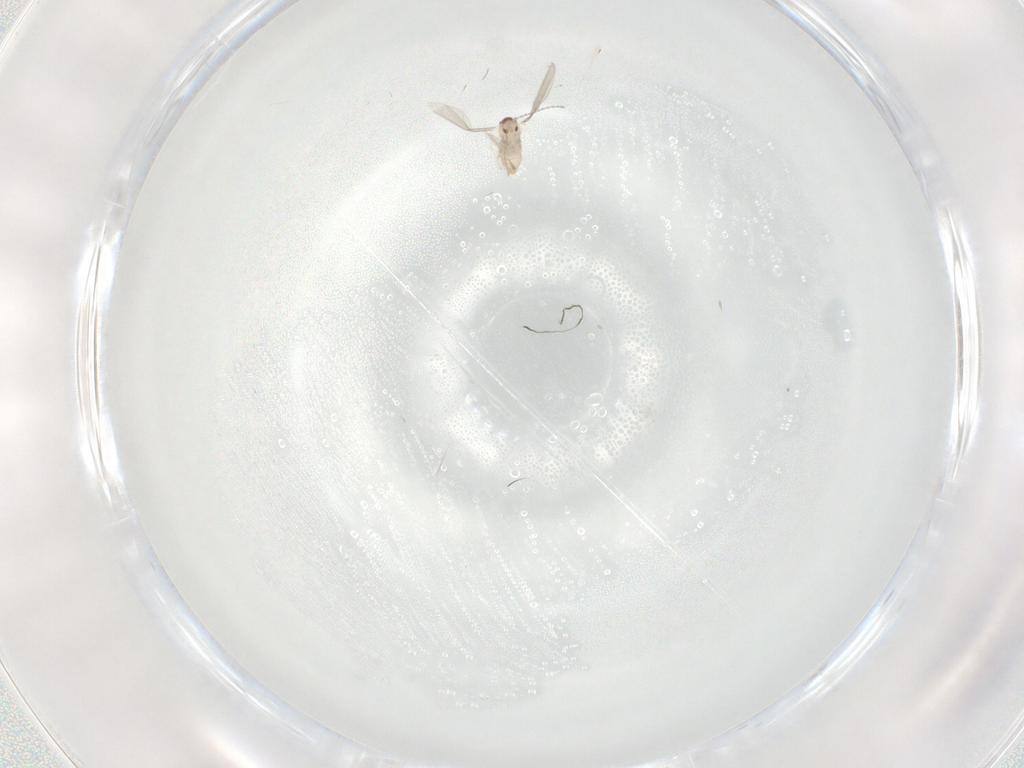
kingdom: Animalia
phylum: Arthropoda
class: Insecta
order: Diptera
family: Cecidomyiidae
